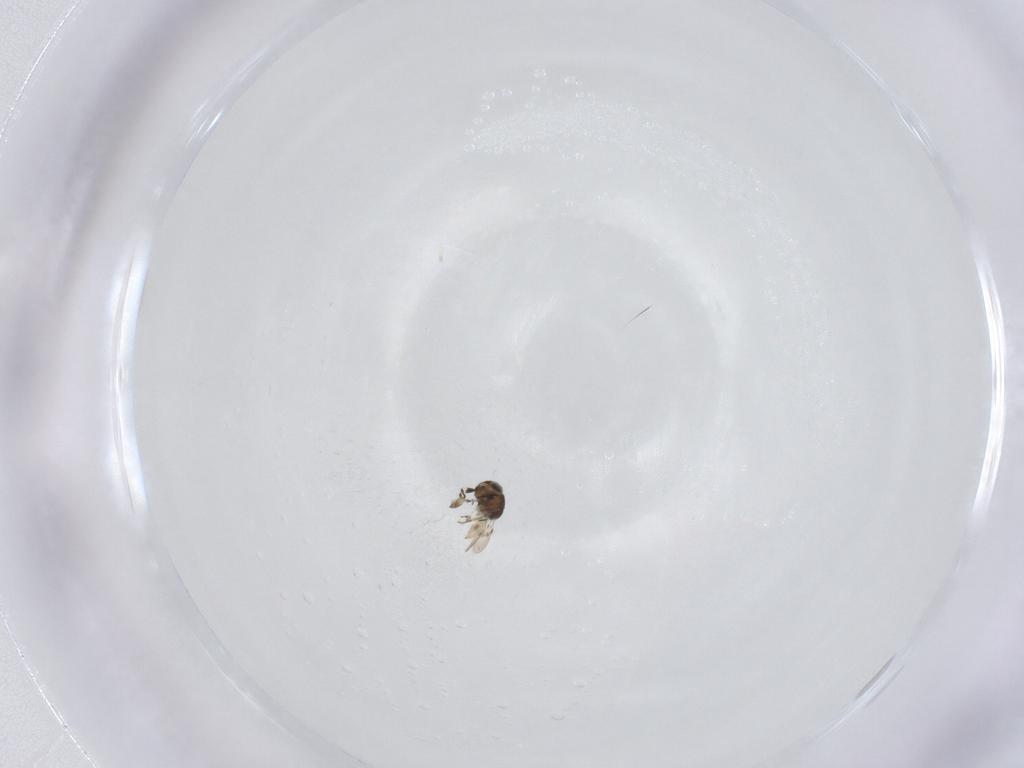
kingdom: Animalia
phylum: Arthropoda
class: Insecta
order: Hymenoptera
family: Scelionidae
